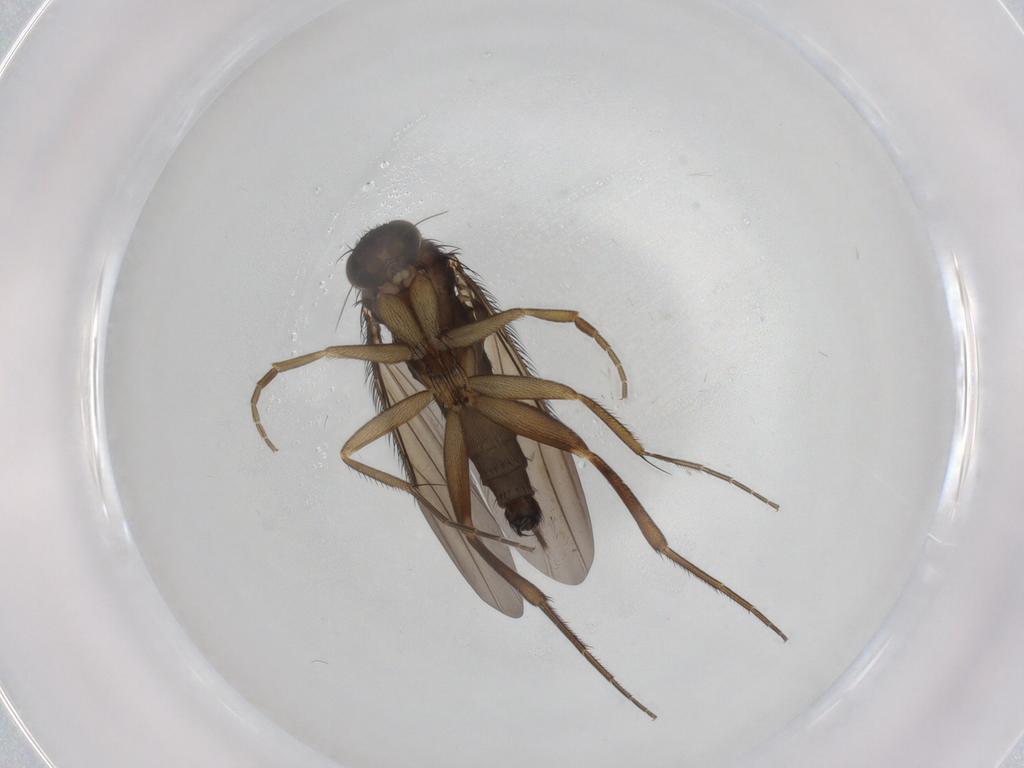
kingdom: Animalia
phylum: Arthropoda
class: Insecta
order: Diptera
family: Phoridae
